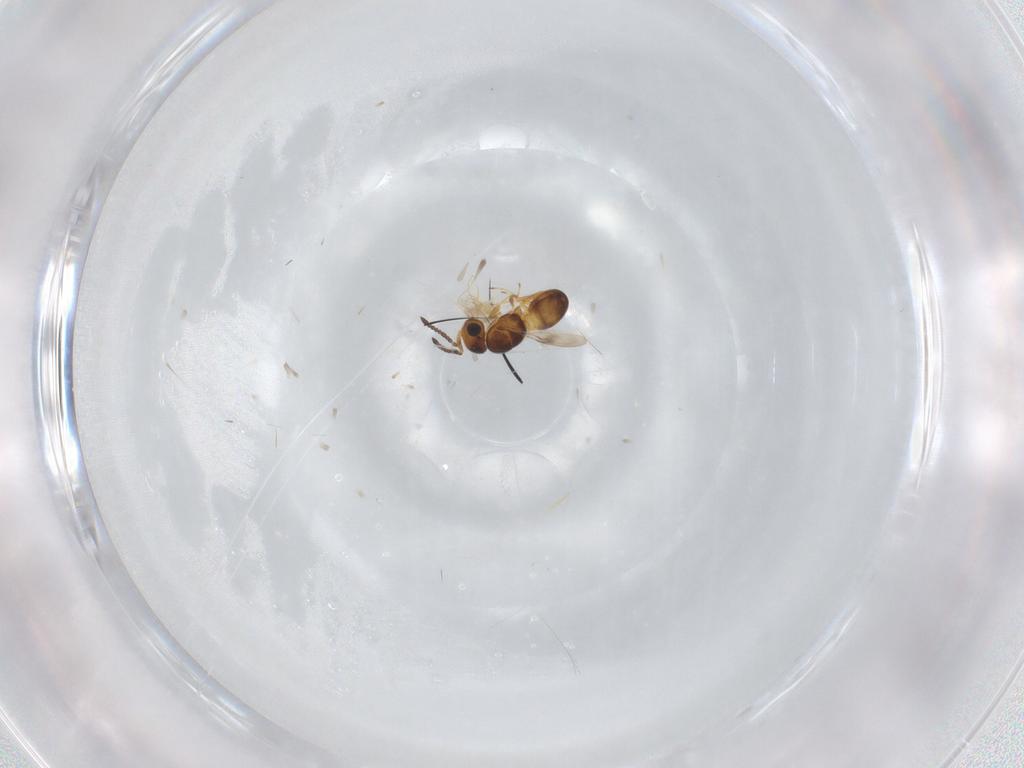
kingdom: Animalia
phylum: Arthropoda
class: Insecta
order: Hymenoptera
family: Scelionidae
